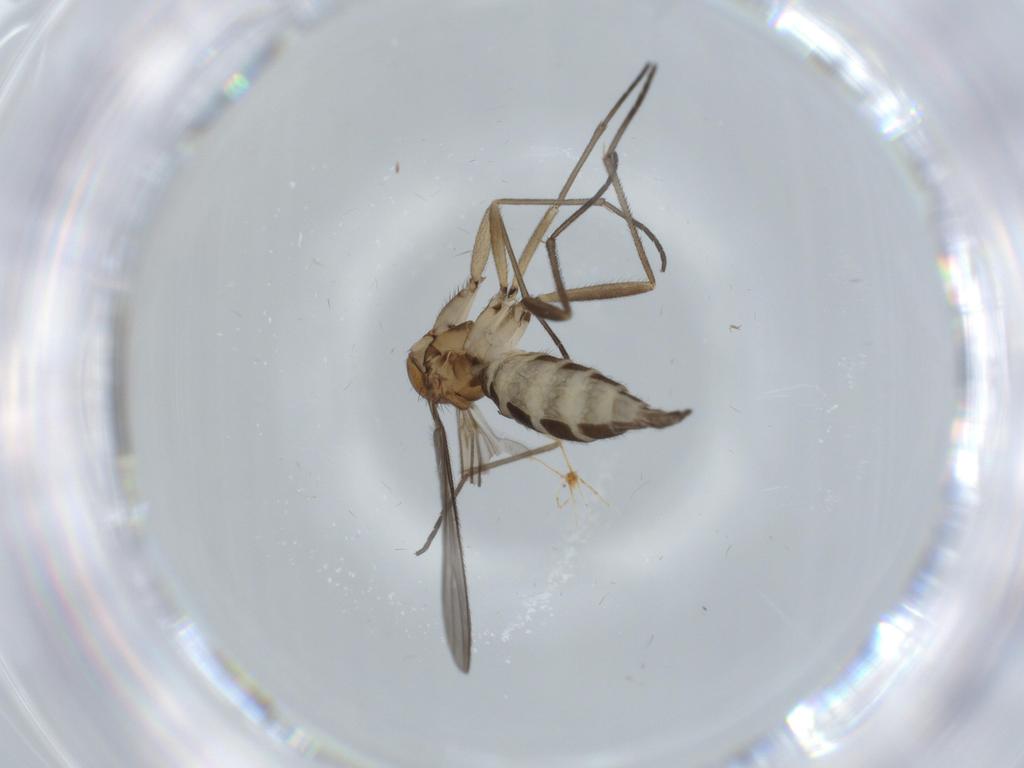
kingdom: Animalia
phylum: Arthropoda
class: Insecta
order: Diptera
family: Sciaridae
